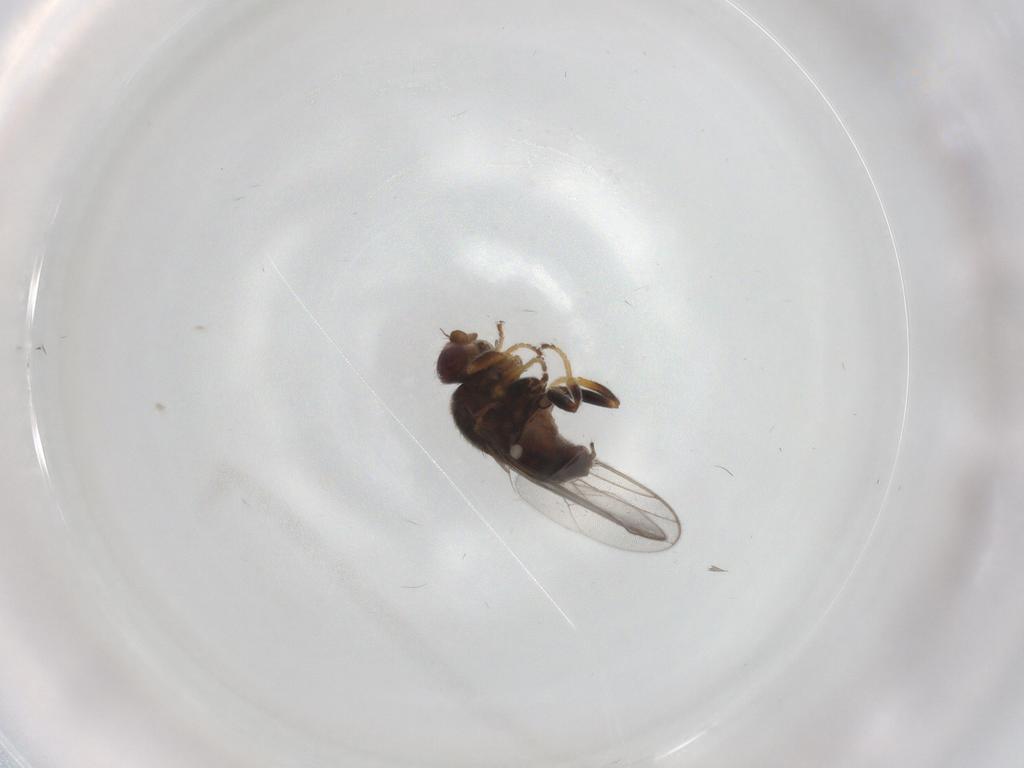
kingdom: Animalia
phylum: Arthropoda
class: Insecta
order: Diptera
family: Chloropidae
